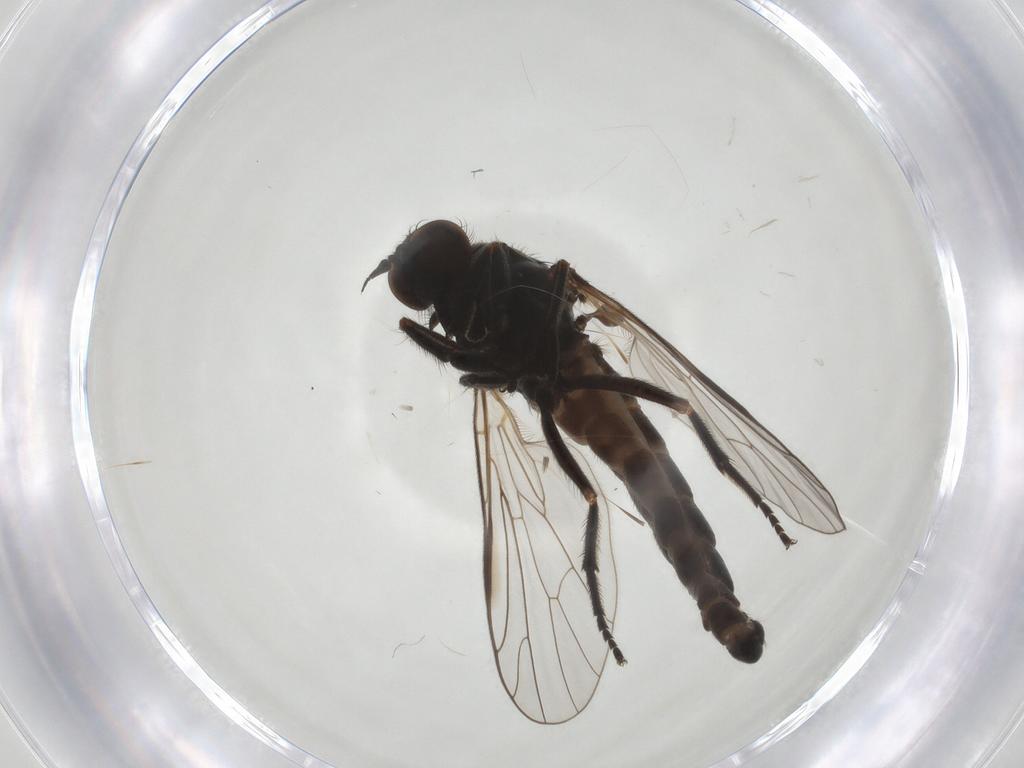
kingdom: Animalia
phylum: Arthropoda
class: Insecta
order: Diptera
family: Empididae
